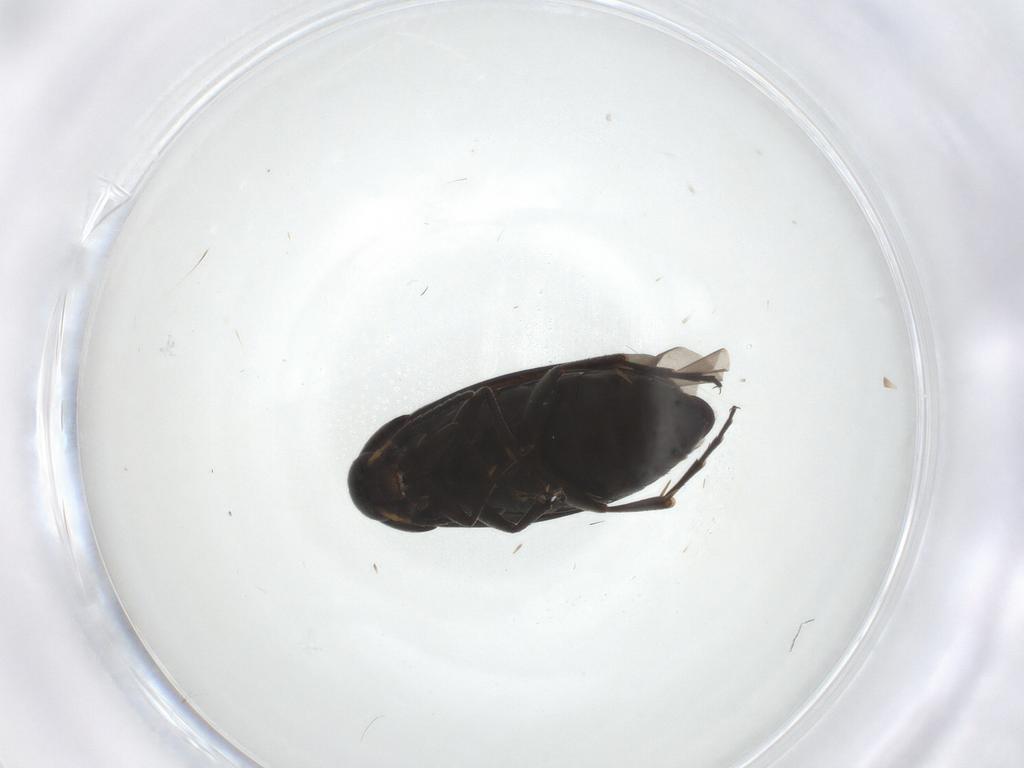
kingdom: Animalia
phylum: Arthropoda
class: Insecta
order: Coleoptera
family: Scraptiidae
